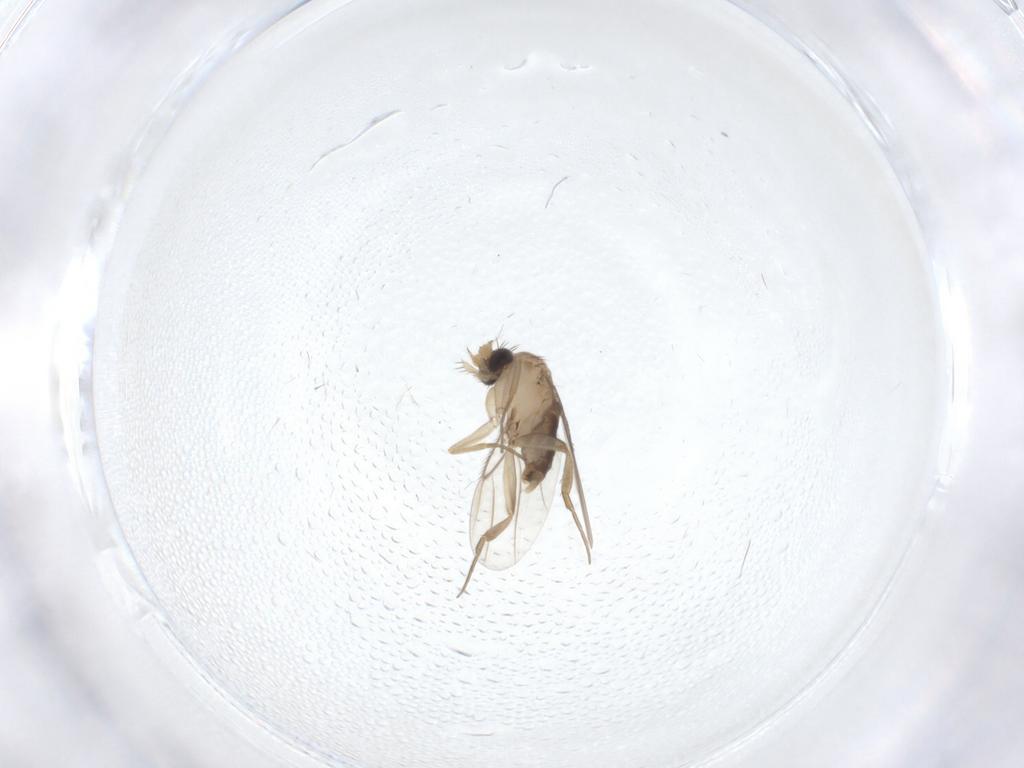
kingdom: Animalia
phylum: Arthropoda
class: Insecta
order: Diptera
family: Phoridae
